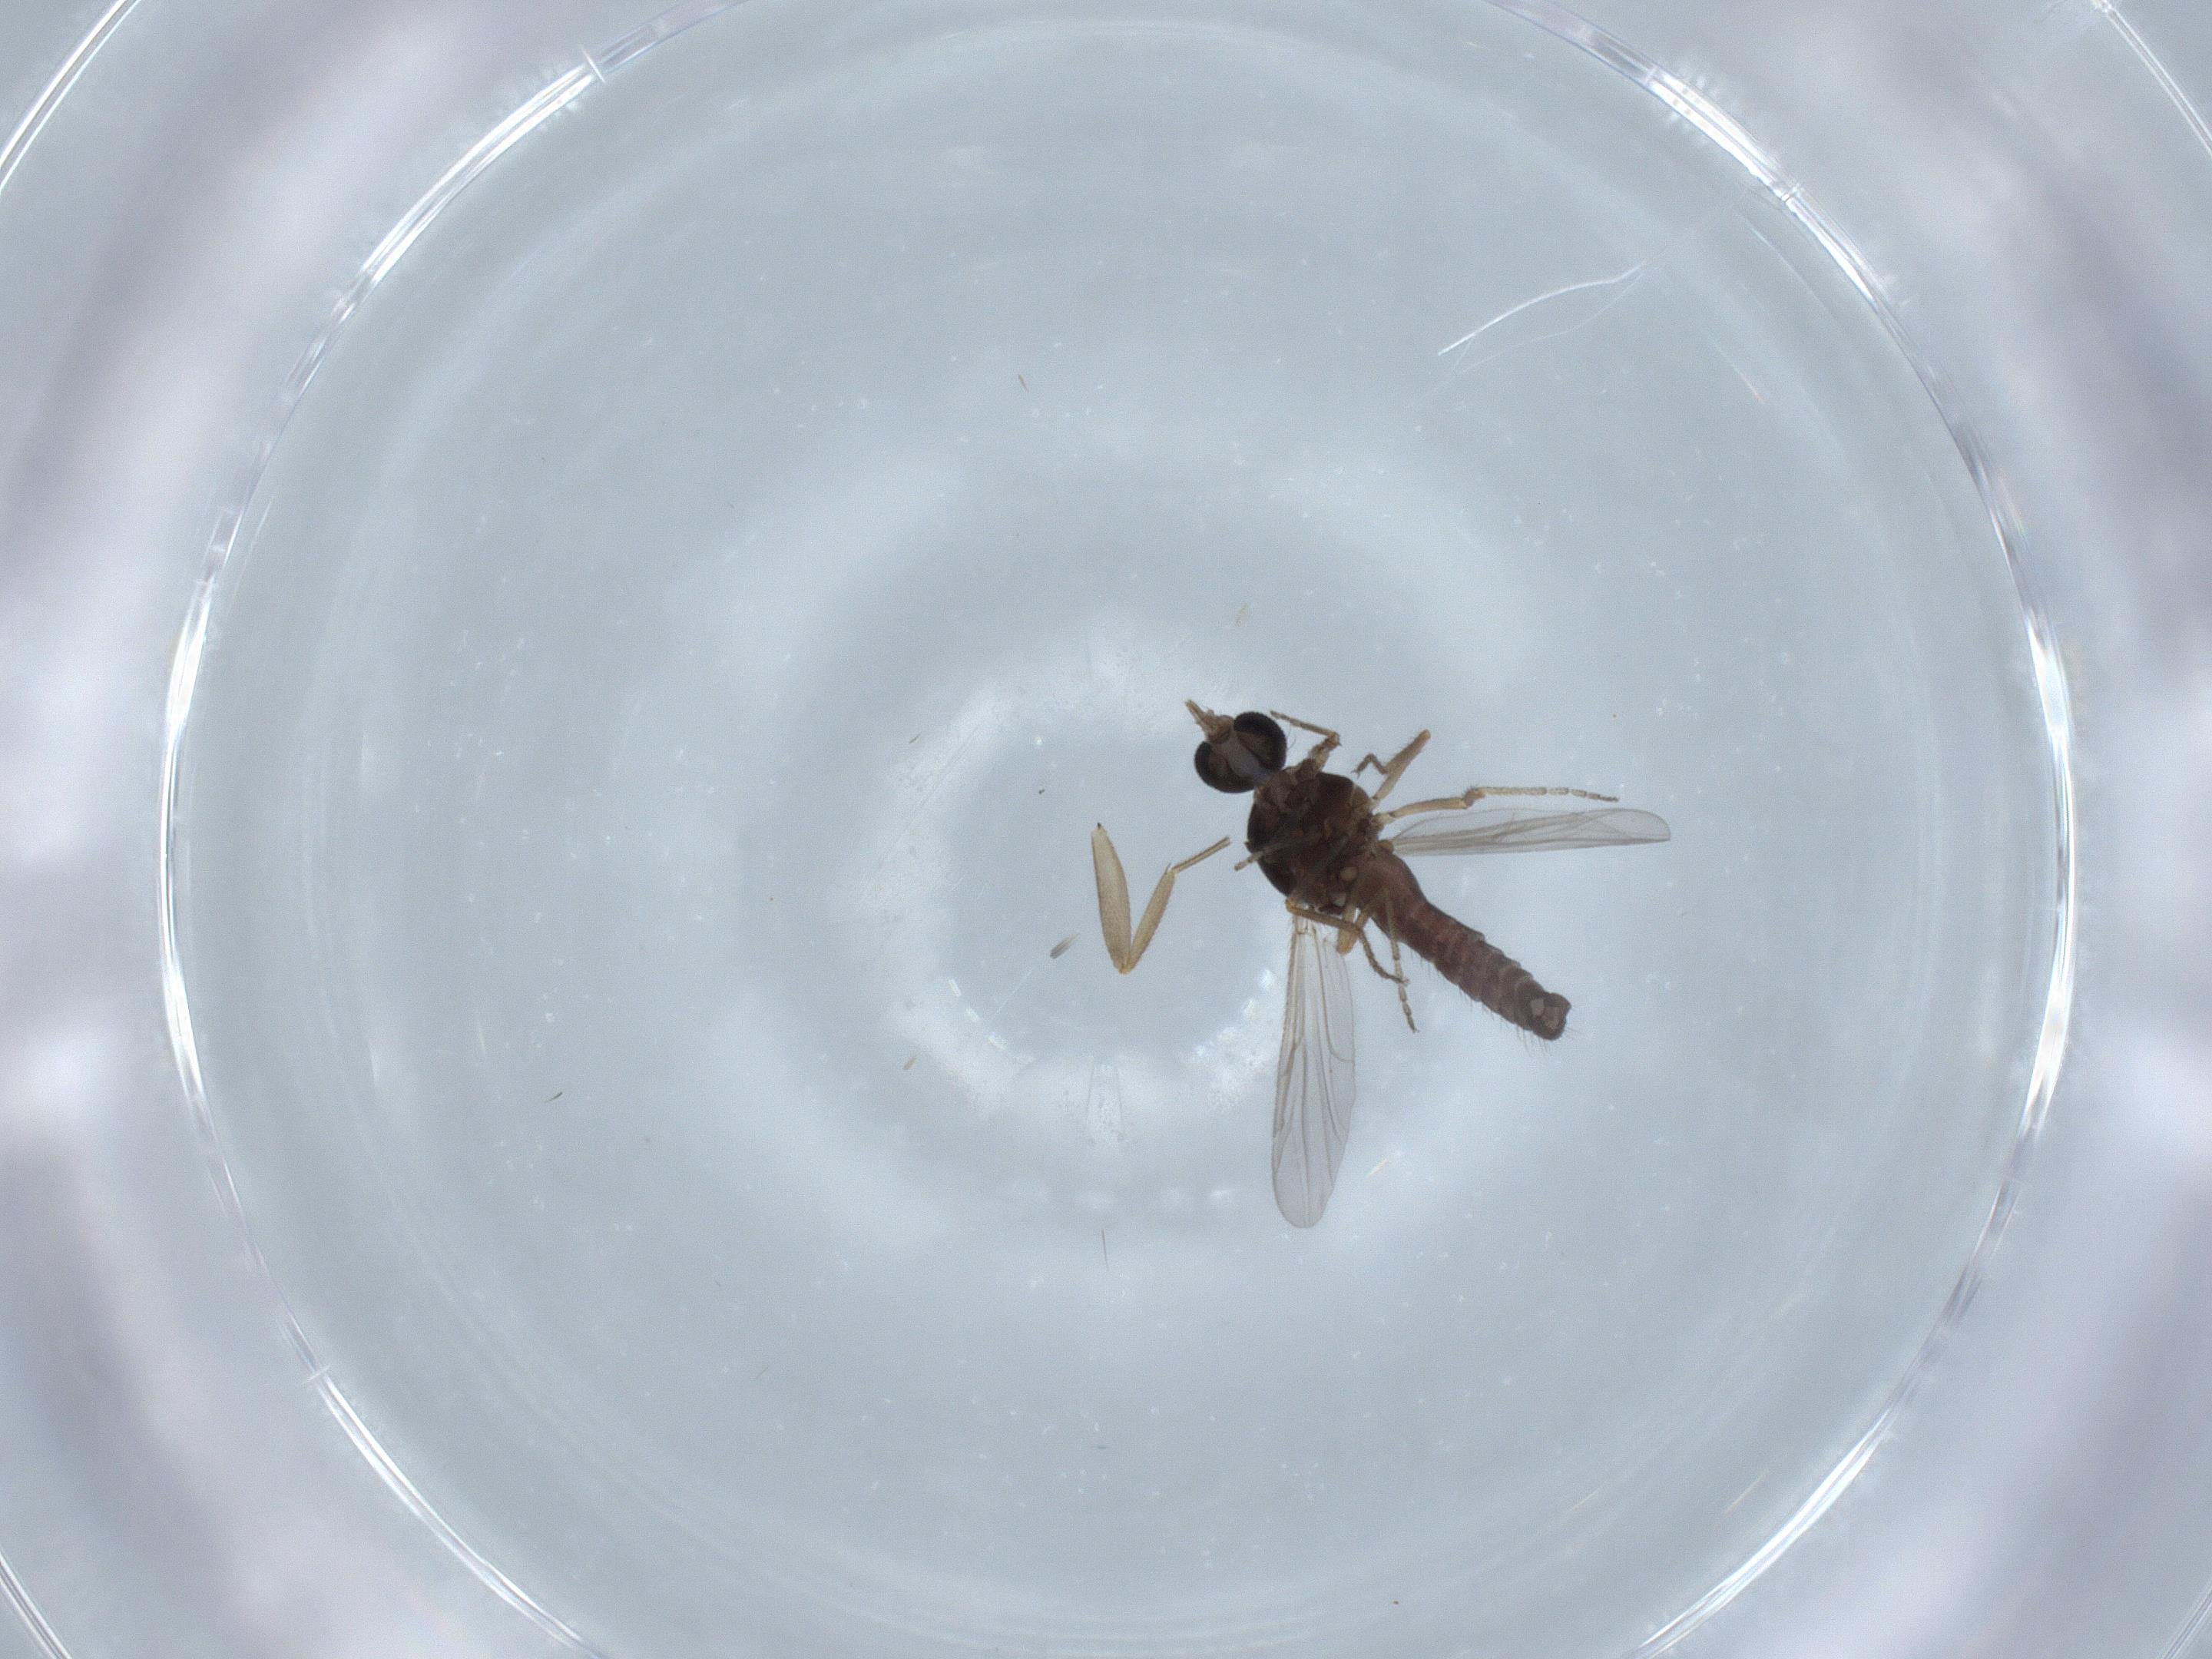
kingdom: Animalia
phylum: Arthropoda
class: Insecta
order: Diptera
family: Ceratopogonidae
